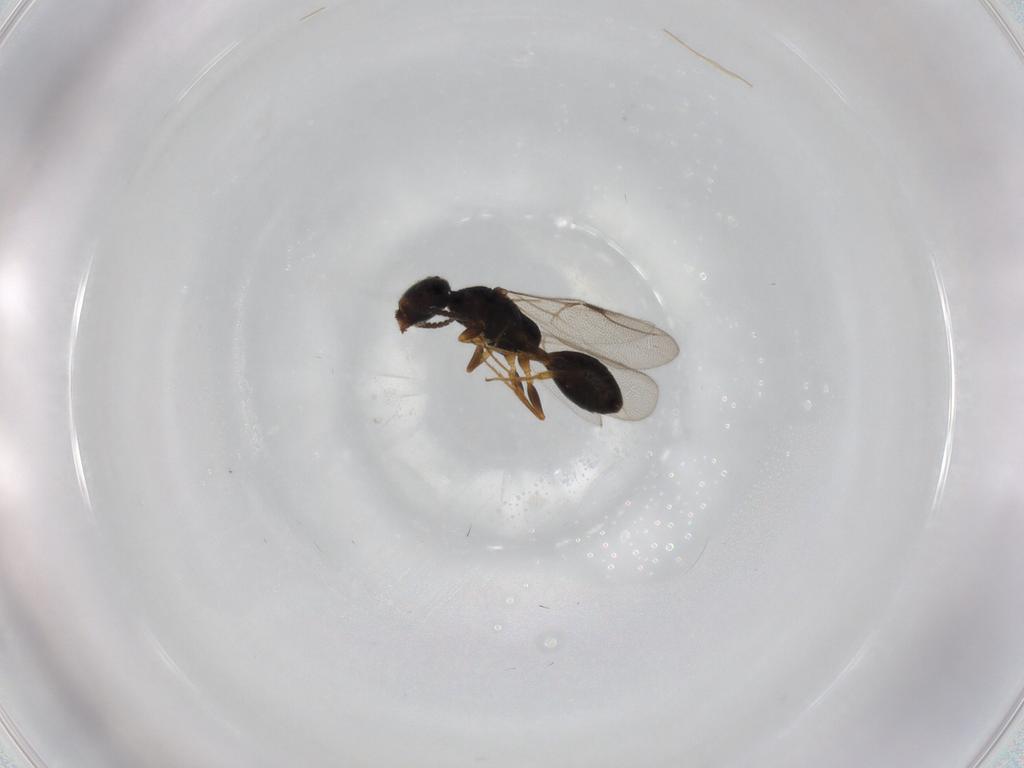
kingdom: Animalia
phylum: Arthropoda
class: Insecta
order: Hymenoptera
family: Bethylidae
